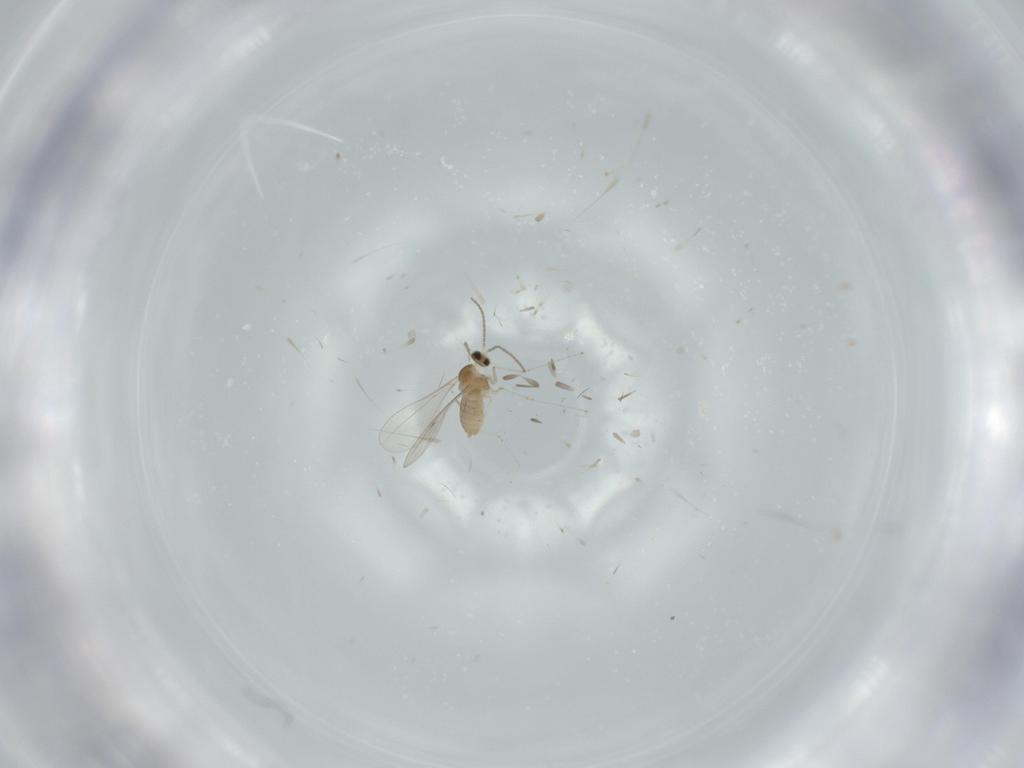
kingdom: Animalia
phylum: Arthropoda
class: Insecta
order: Diptera
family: Cecidomyiidae
